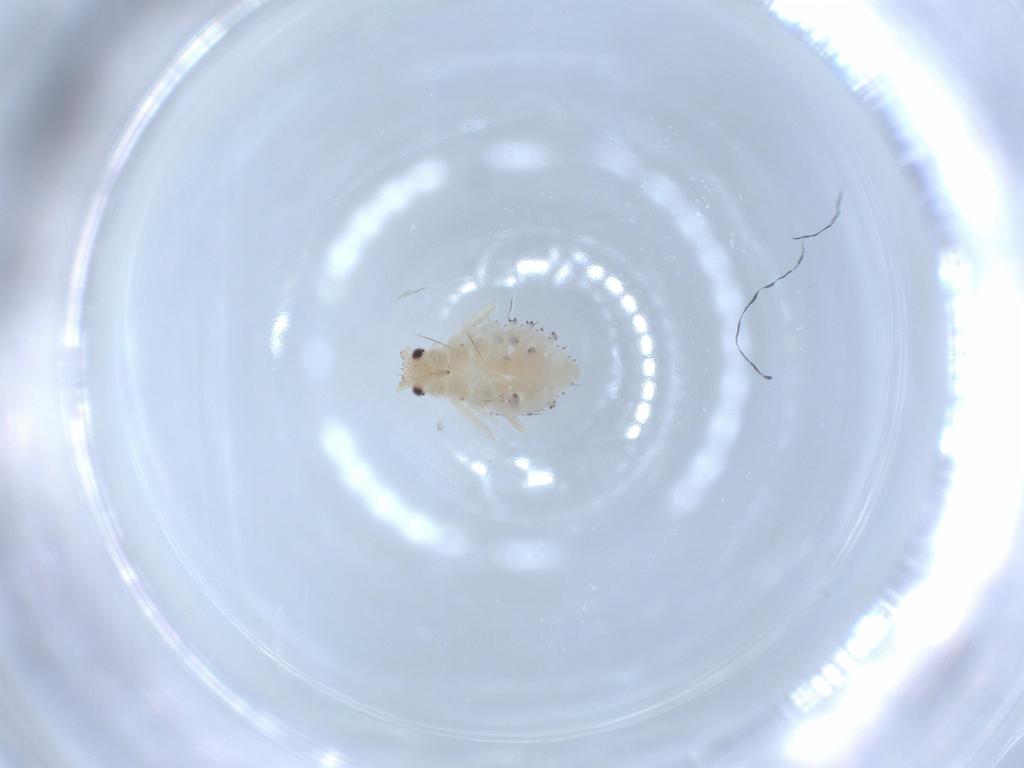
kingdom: Animalia
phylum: Arthropoda
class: Insecta
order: Hemiptera
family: Aphididae
